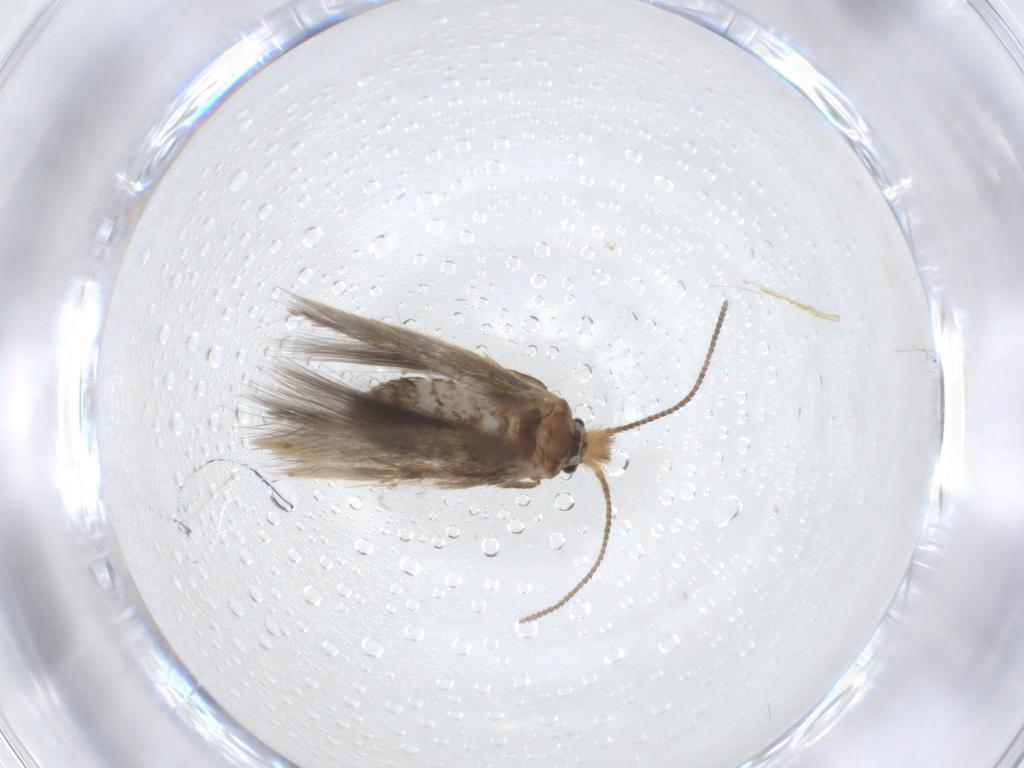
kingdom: Animalia
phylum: Arthropoda
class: Insecta
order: Lepidoptera
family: Nepticulidae
